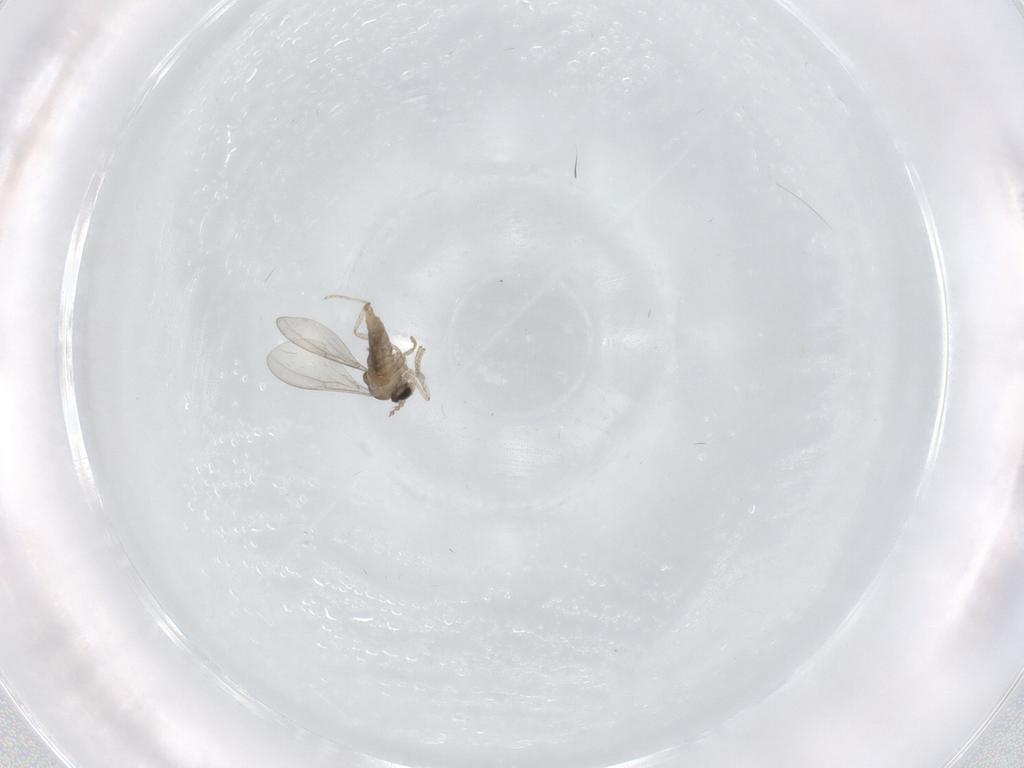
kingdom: Animalia
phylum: Arthropoda
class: Insecta
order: Diptera
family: Cecidomyiidae
